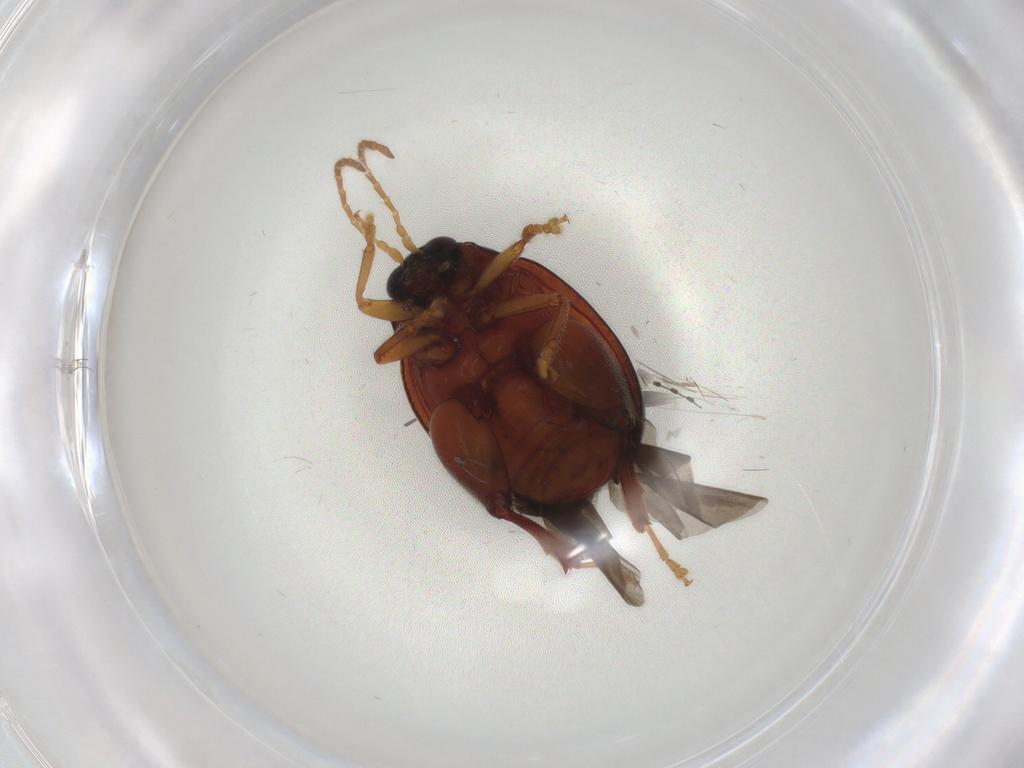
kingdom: Animalia
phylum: Arthropoda
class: Insecta
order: Coleoptera
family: Chrysomelidae
